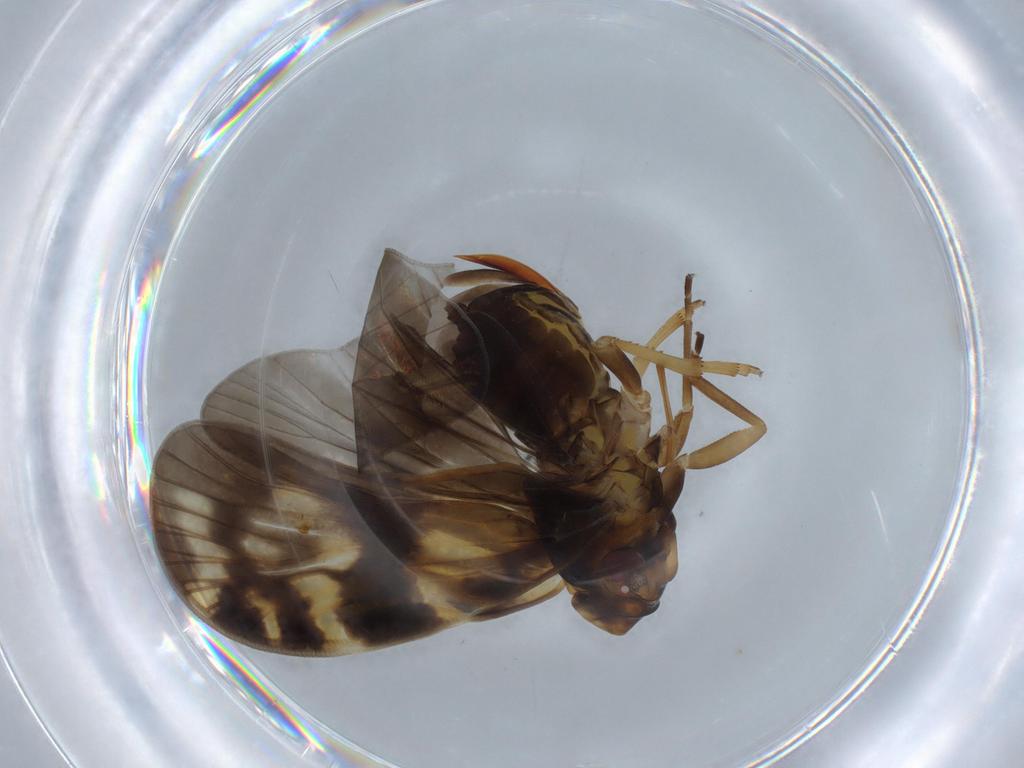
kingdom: Animalia
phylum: Arthropoda
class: Insecta
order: Hemiptera
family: Cixiidae
